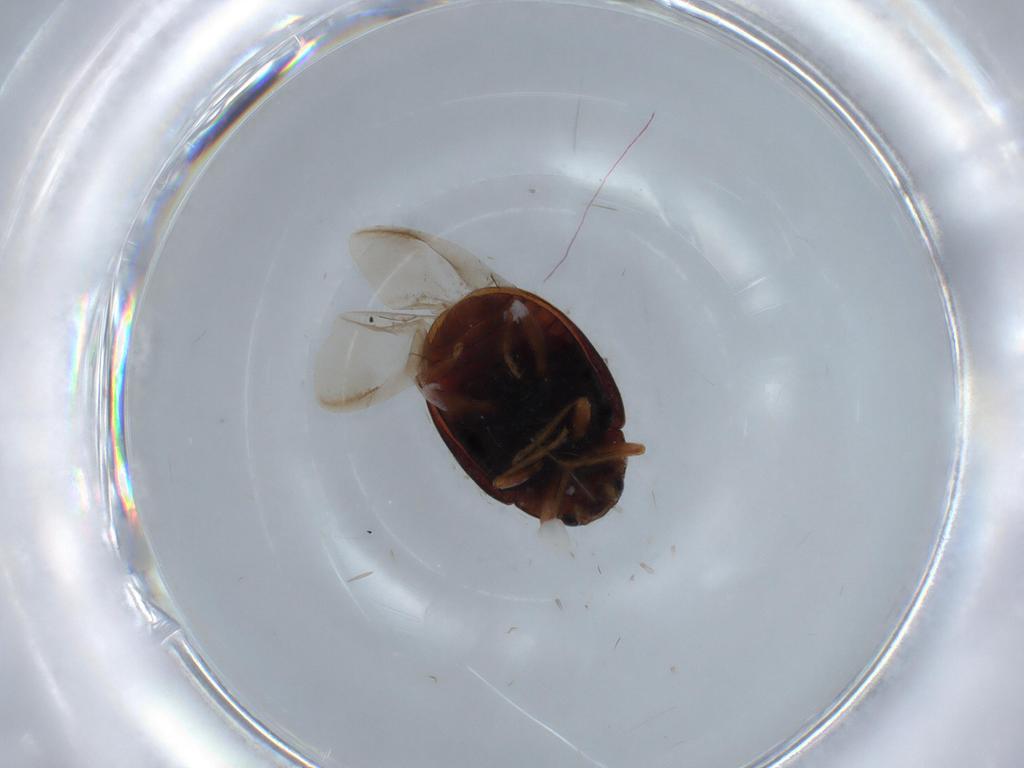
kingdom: Animalia
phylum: Arthropoda
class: Insecta
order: Coleoptera
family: Coccinellidae
